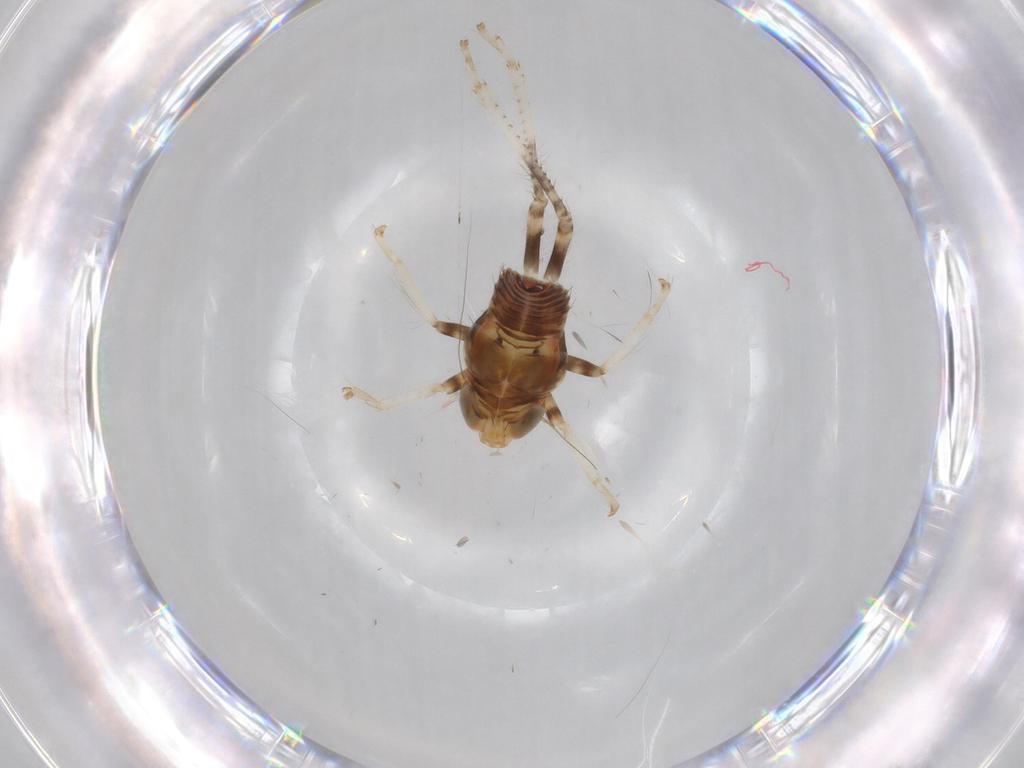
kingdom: Animalia
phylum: Arthropoda
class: Insecta
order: Hemiptera
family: Cicadellidae
